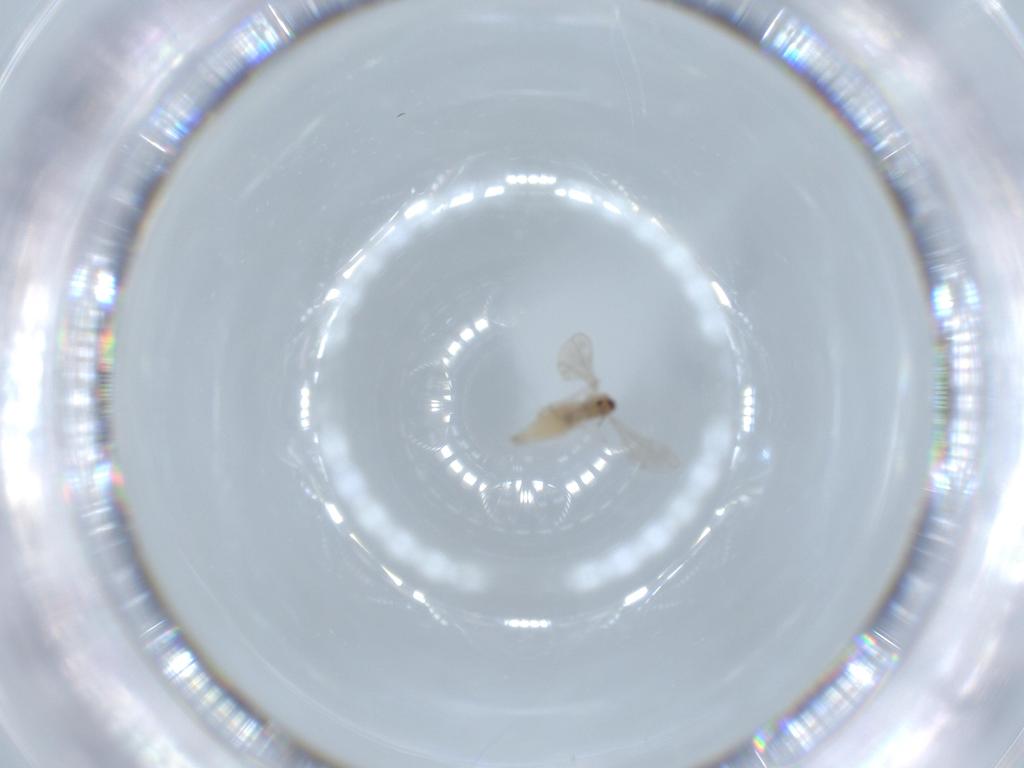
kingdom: Animalia
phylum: Arthropoda
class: Insecta
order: Diptera
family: Cecidomyiidae
